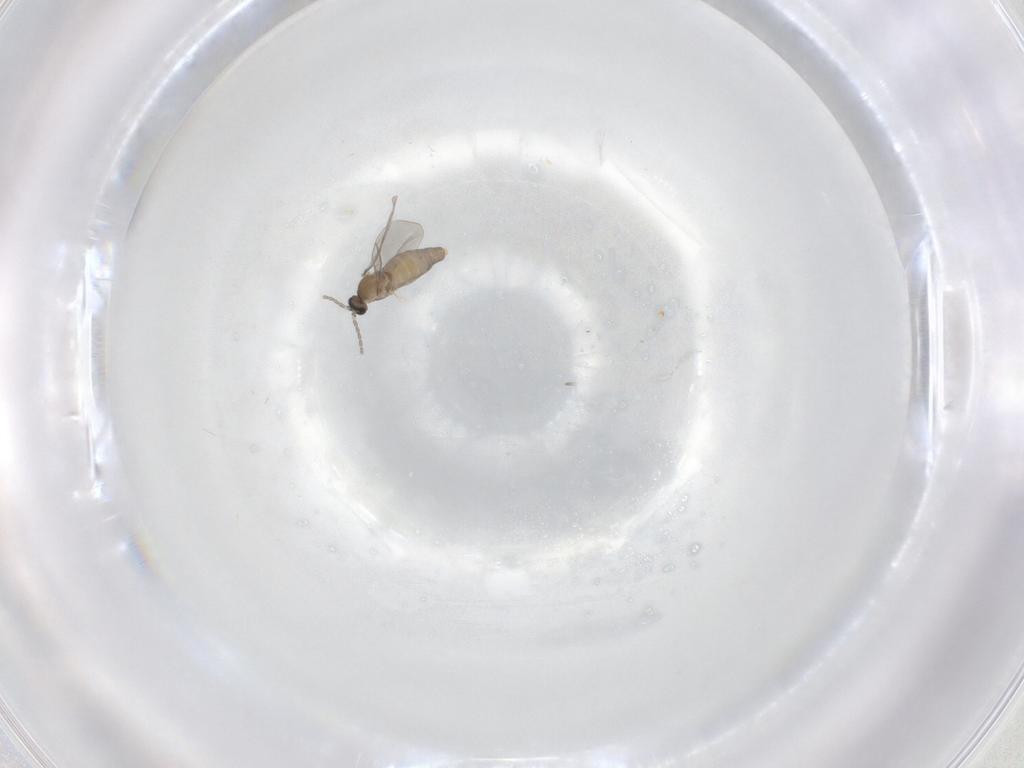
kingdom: Animalia
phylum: Arthropoda
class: Insecta
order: Diptera
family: Cecidomyiidae
